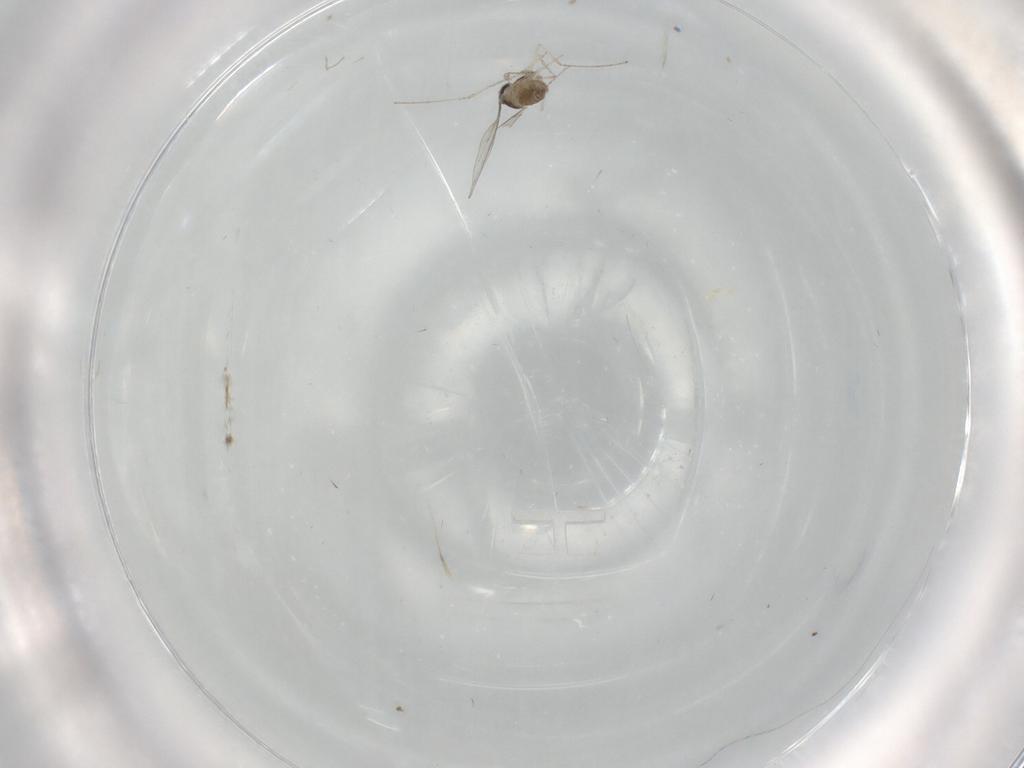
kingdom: Animalia
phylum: Arthropoda
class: Insecta
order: Diptera
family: Cecidomyiidae
